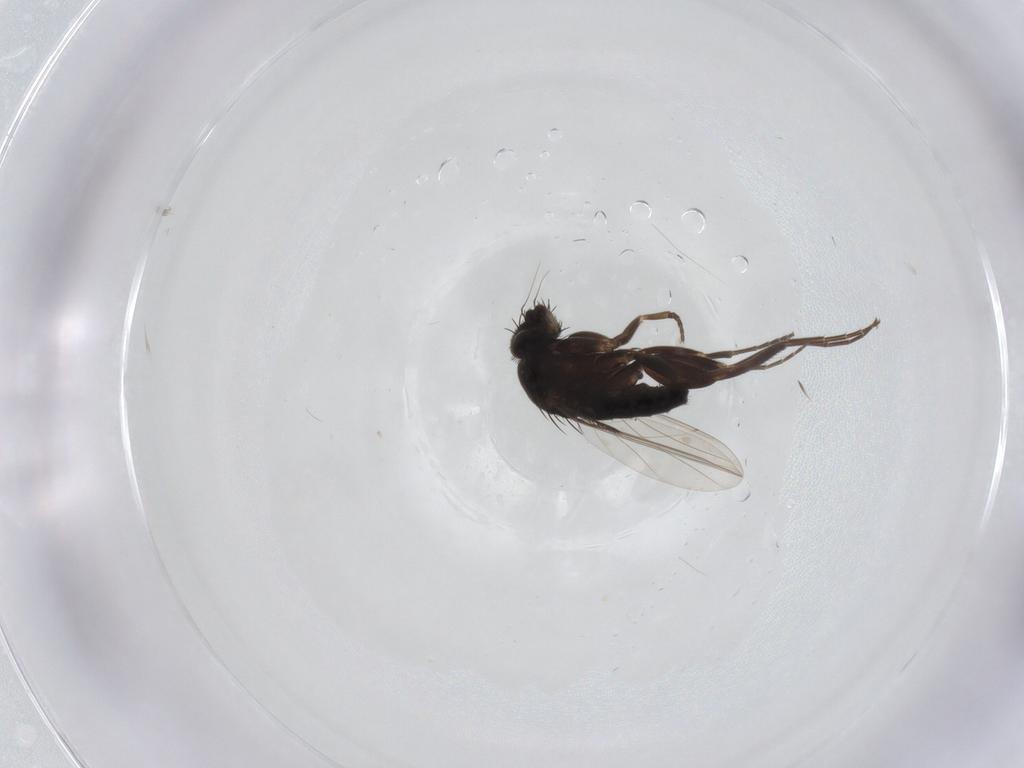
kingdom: Animalia
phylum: Arthropoda
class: Insecta
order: Diptera
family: Phoridae
